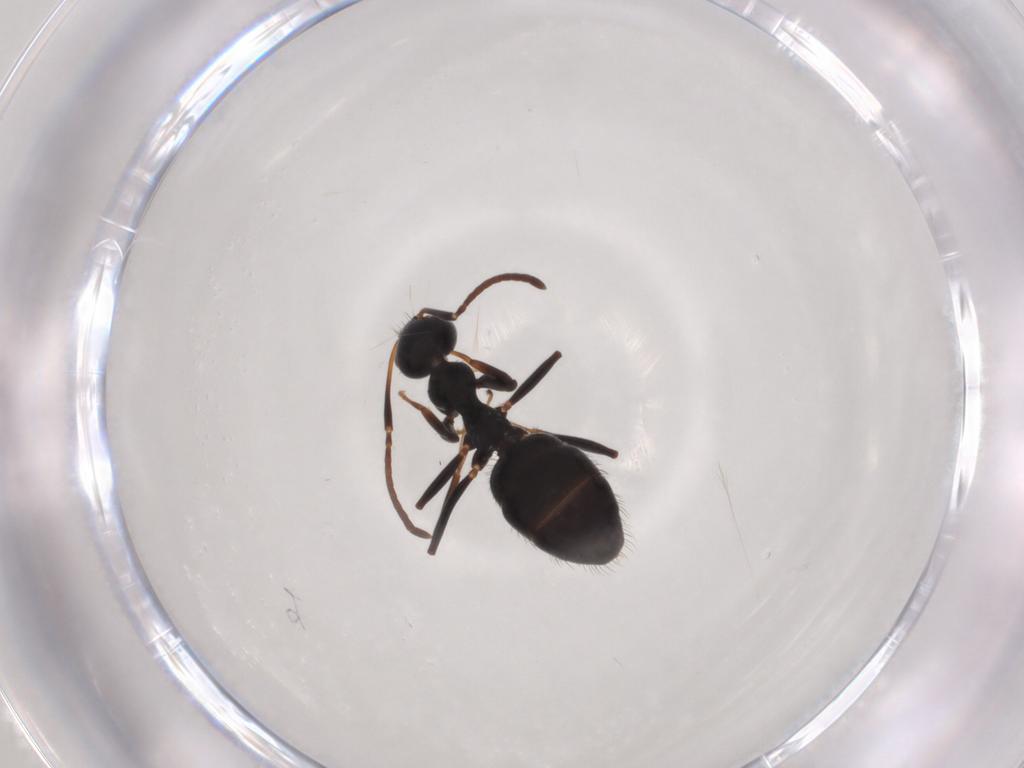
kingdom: Animalia
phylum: Arthropoda
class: Insecta
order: Hymenoptera
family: Formicidae
